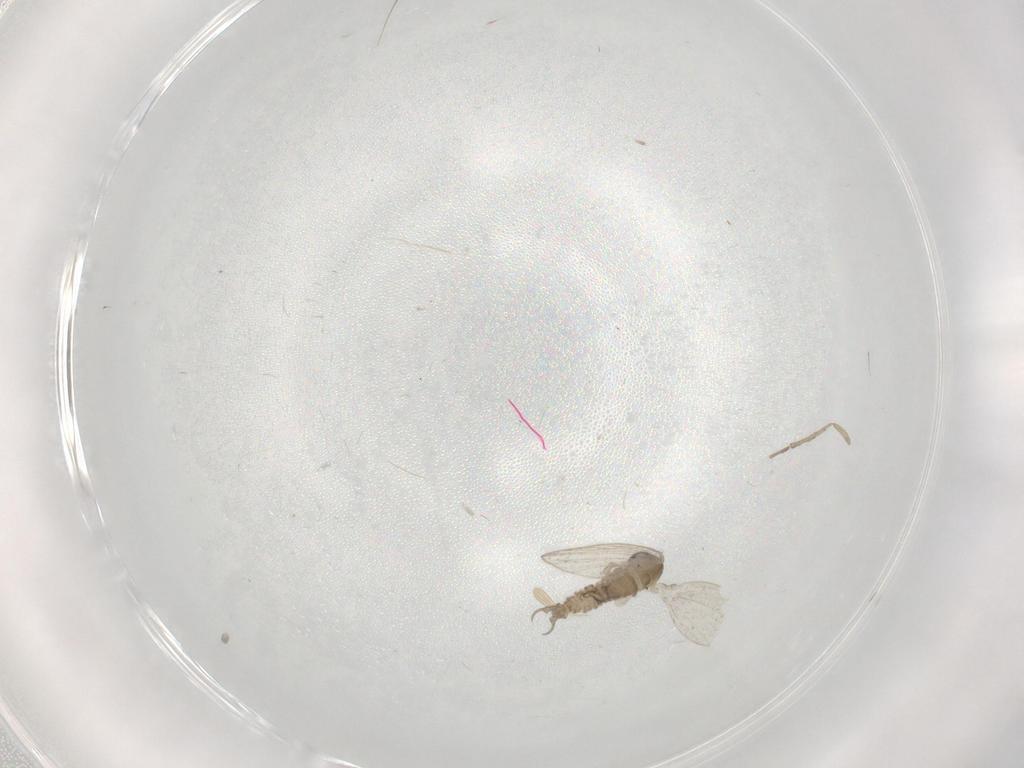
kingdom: Animalia
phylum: Arthropoda
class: Insecta
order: Diptera
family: Psychodidae
